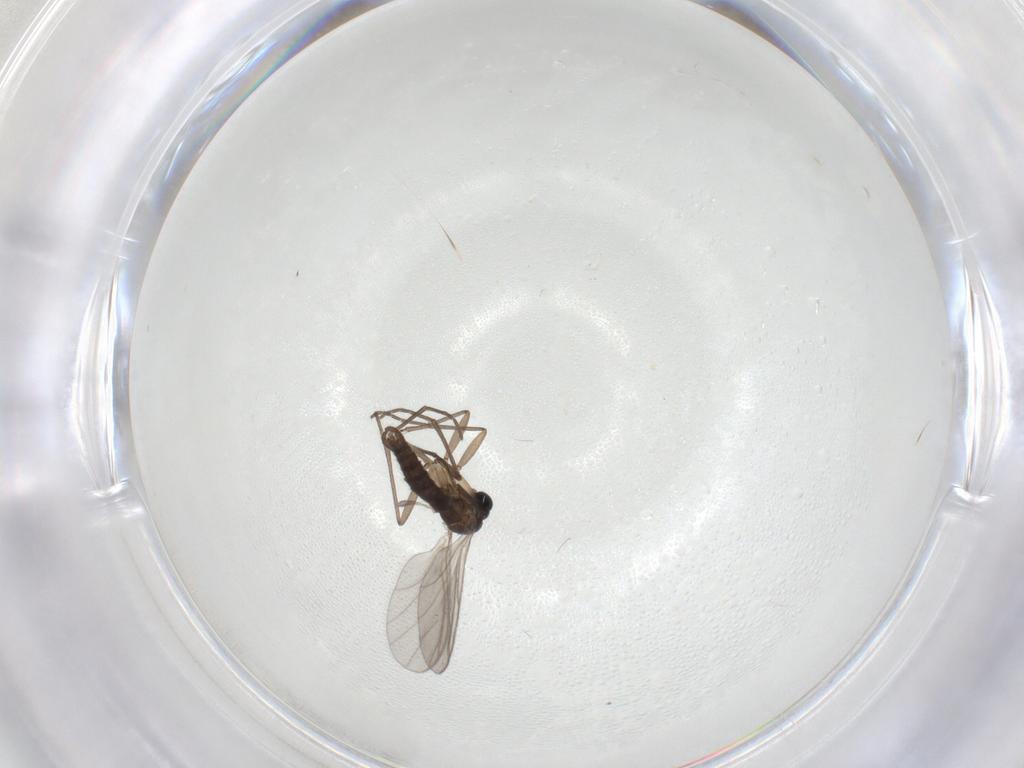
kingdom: Animalia
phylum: Arthropoda
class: Insecta
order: Diptera
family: Sciaridae
